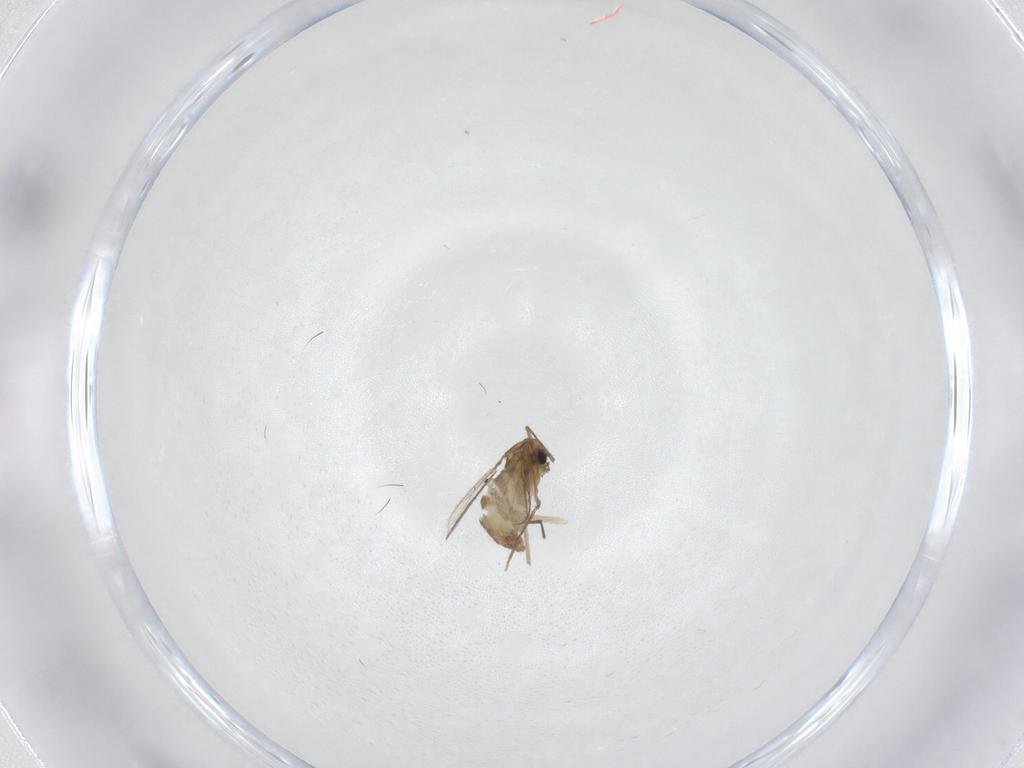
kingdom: Animalia
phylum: Arthropoda
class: Insecta
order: Diptera
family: Chironomidae
